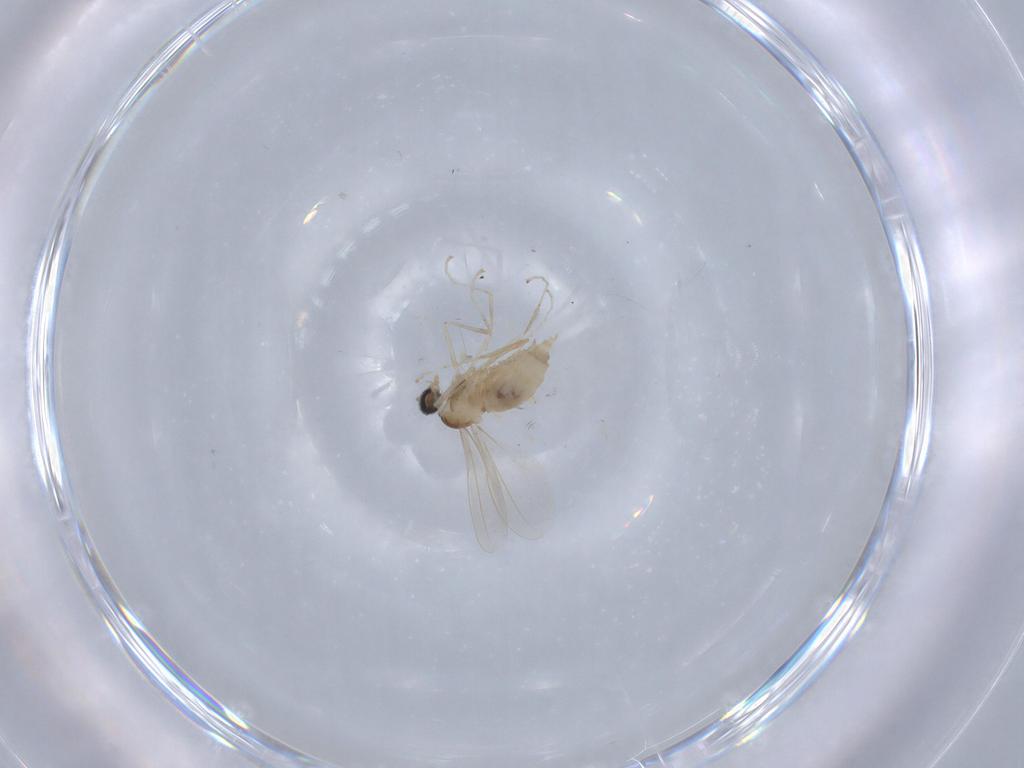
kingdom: Animalia
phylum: Arthropoda
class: Insecta
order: Diptera
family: Cecidomyiidae
